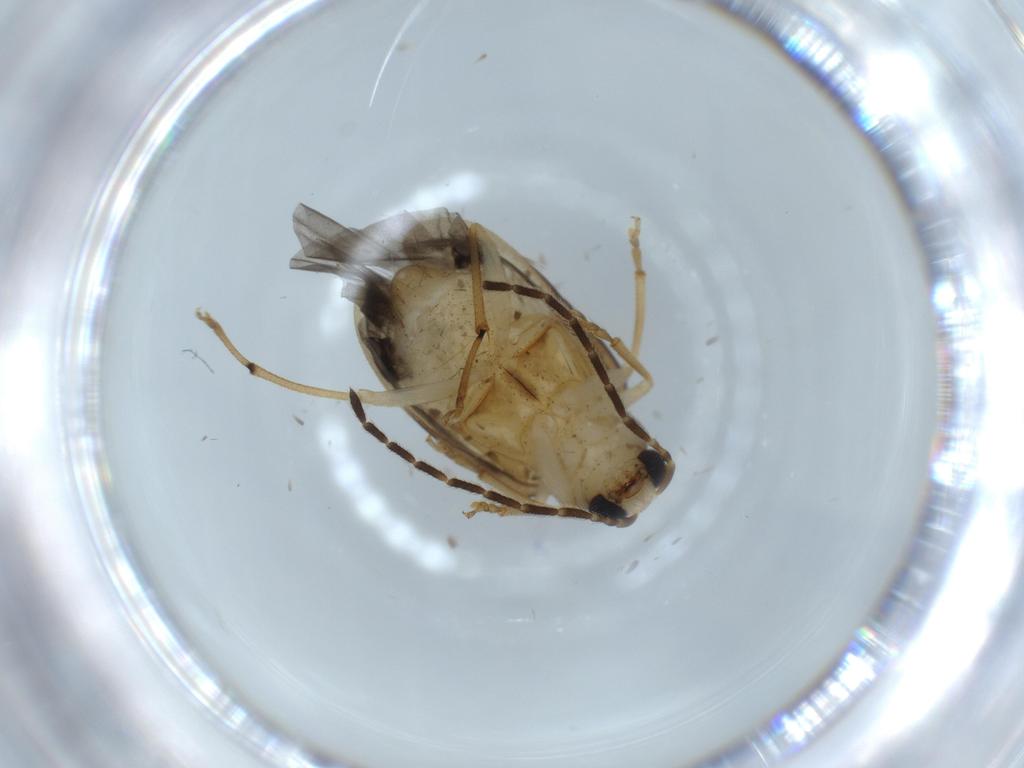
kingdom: Animalia
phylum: Arthropoda
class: Insecta
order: Coleoptera
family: Chrysomelidae
